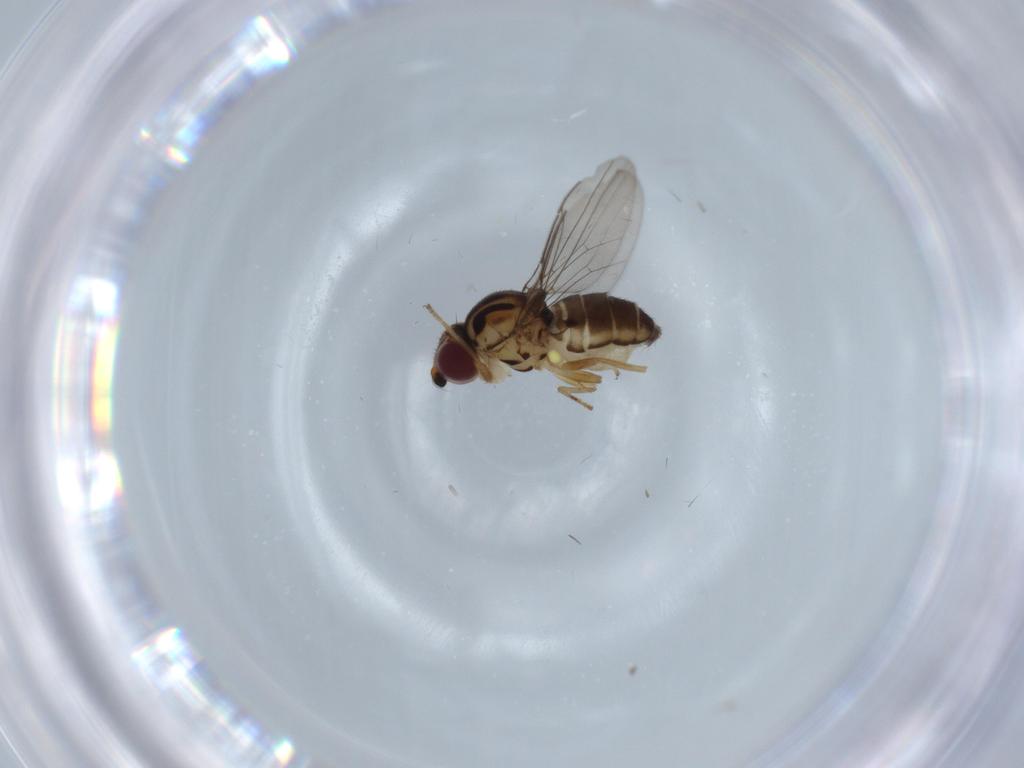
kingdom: Animalia
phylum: Arthropoda
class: Insecta
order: Diptera
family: Chloropidae
